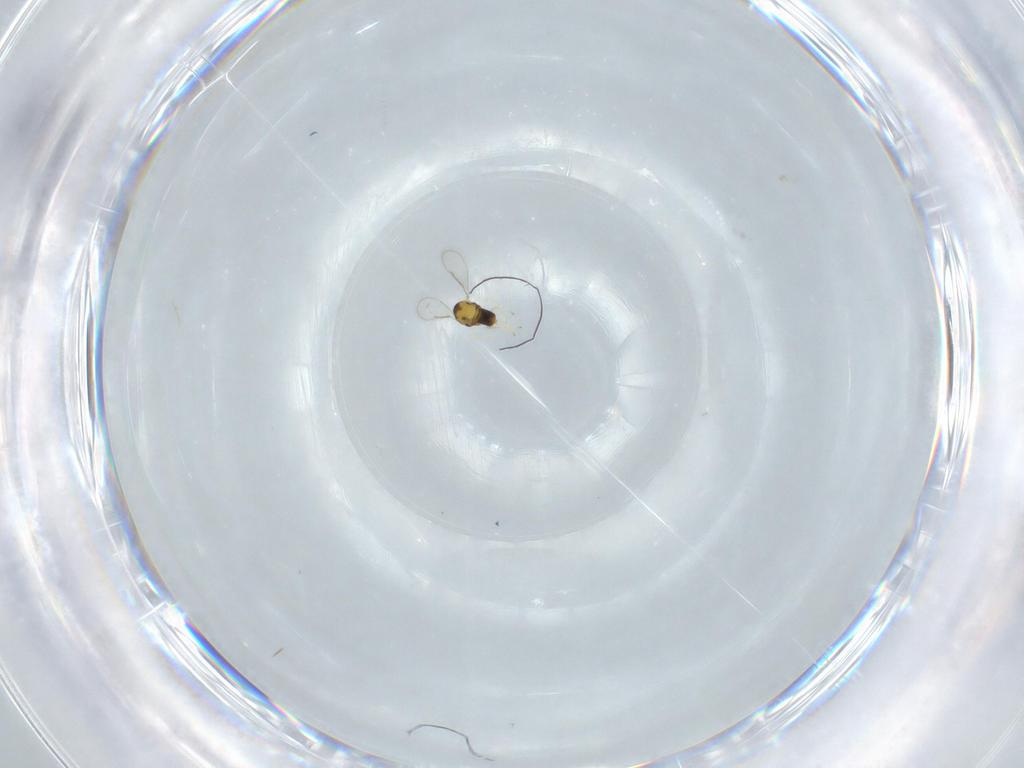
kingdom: Animalia
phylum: Arthropoda
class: Insecta
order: Hymenoptera
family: Aphelinidae
